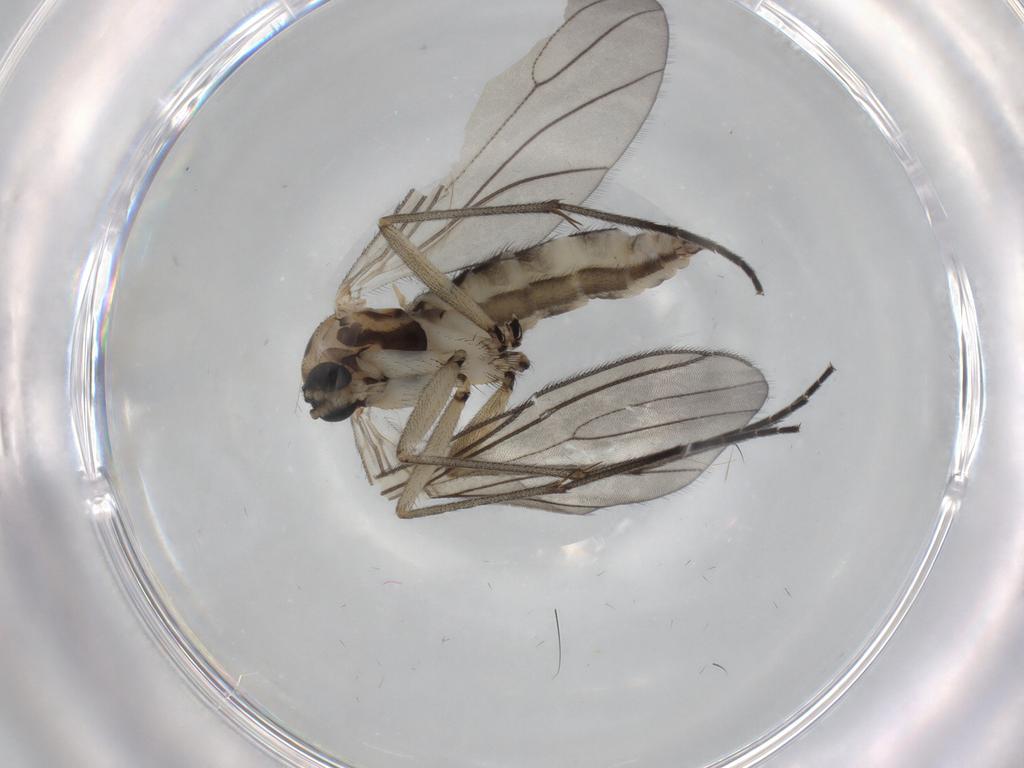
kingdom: Animalia
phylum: Arthropoda
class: Insecta
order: Diptera
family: Sciaridae
